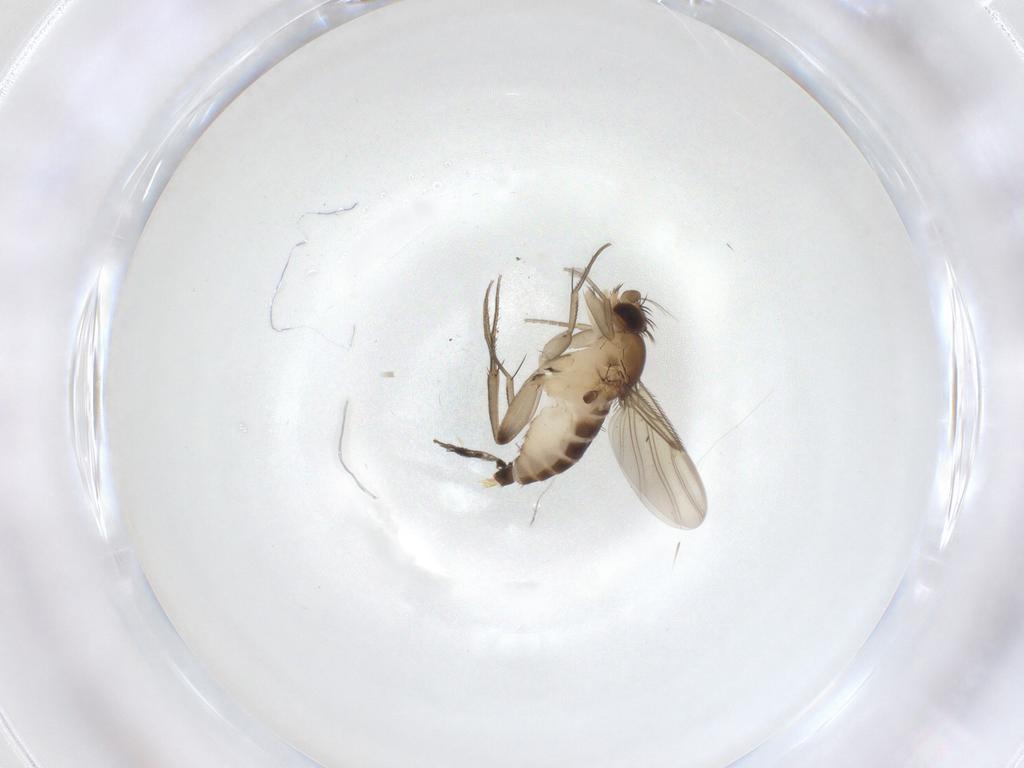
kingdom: Animalia
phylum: Arthropoda
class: Insecta
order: Diptera
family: Phoridae
